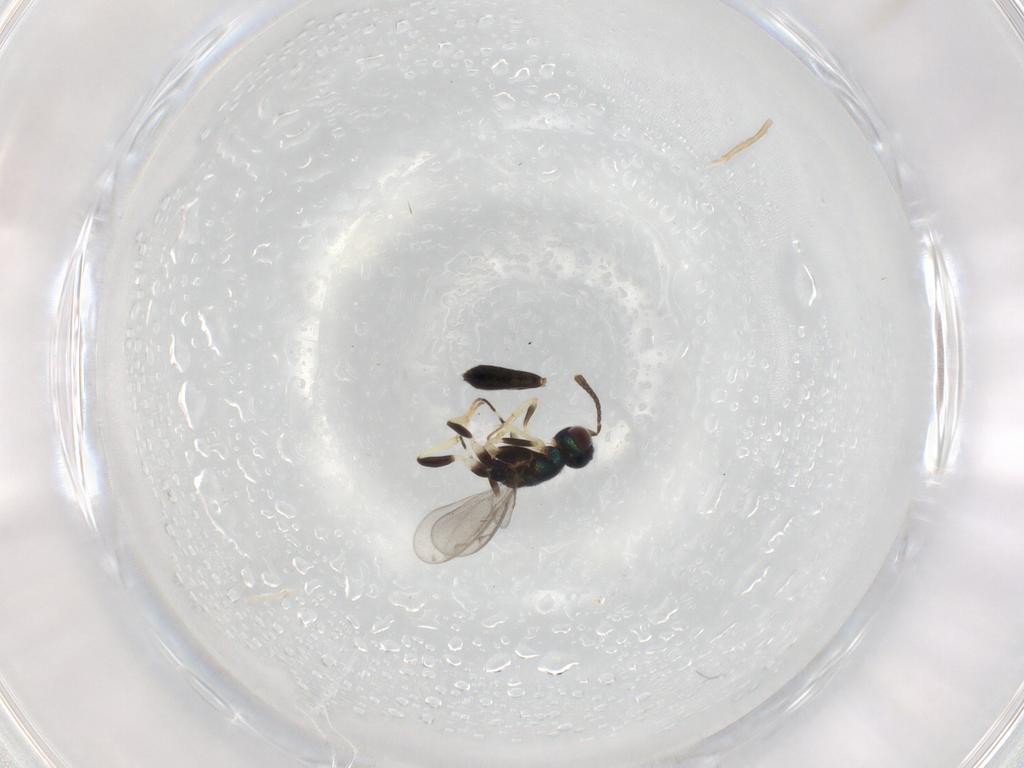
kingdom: Animalia
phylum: Arthropoda
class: Insecta
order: Hymenoptera
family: Eupelmidae
